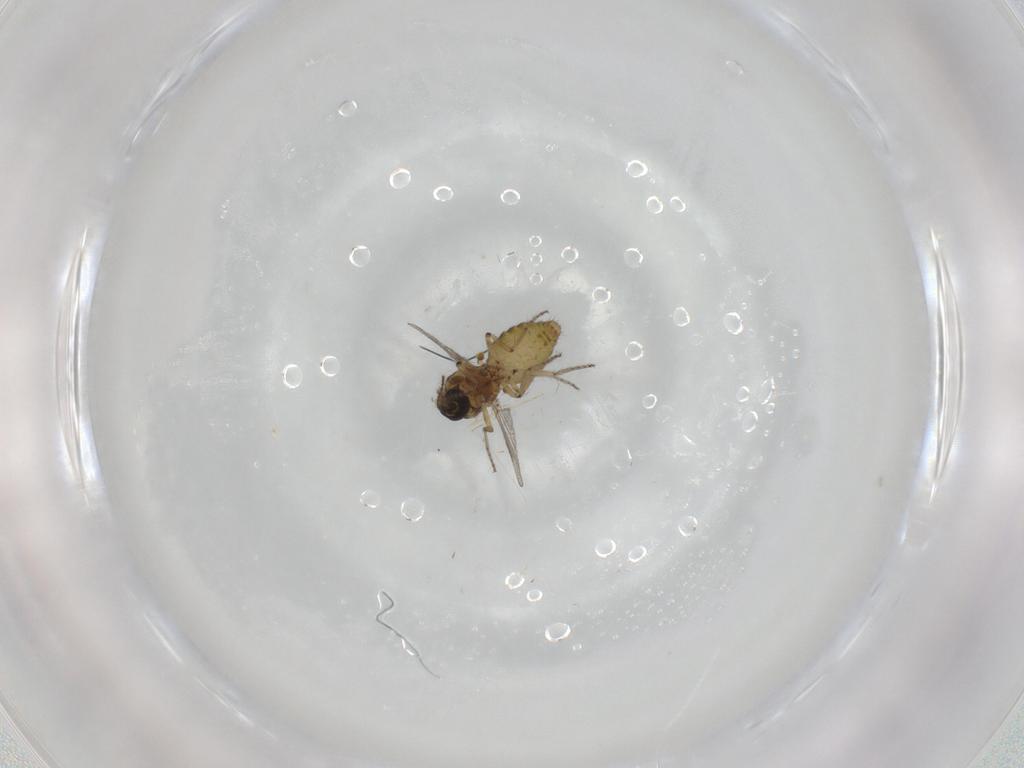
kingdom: Animalia
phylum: Arthropoda
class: Insecta
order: Diptera
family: Ceratopogonidae
